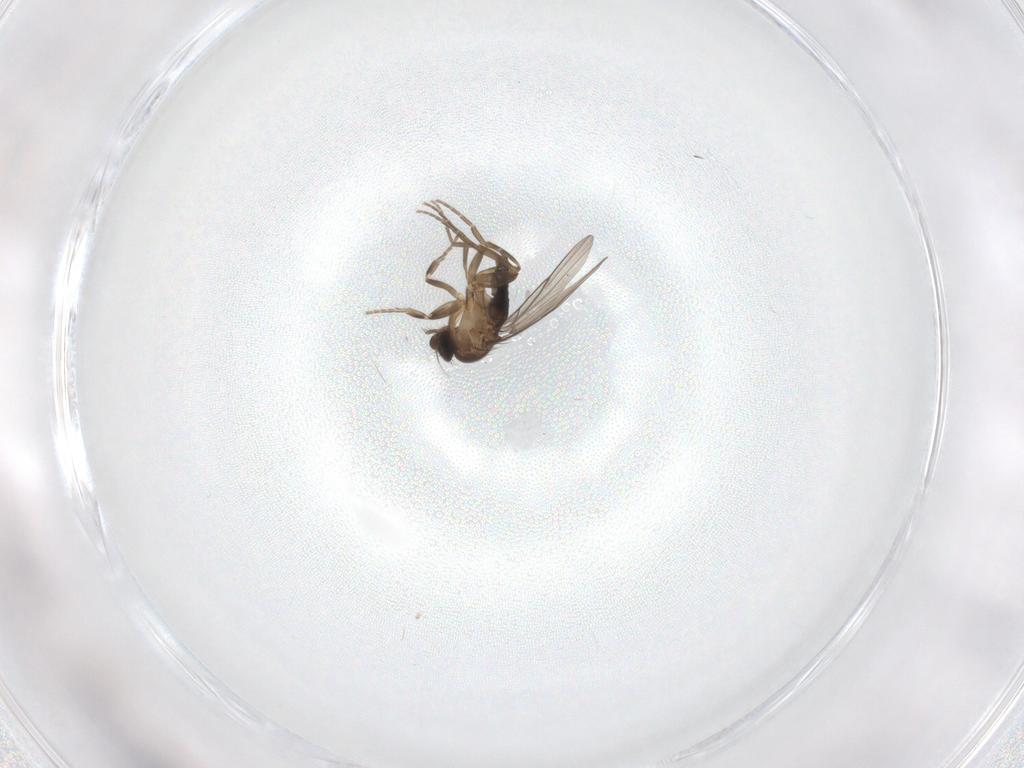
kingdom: Animalia
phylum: Arthropoda
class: Insecta
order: Diptera
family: Phoridae
